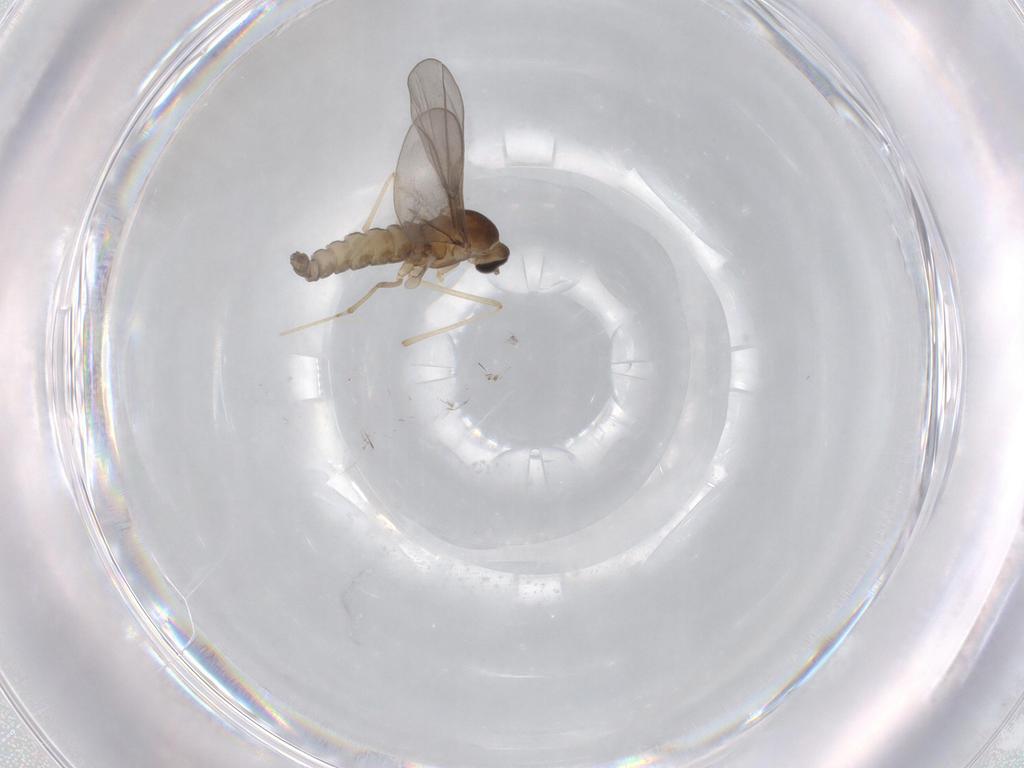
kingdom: Animalia
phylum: Arthropoda
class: Insecta
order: Diptera
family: Cecidomyiidae
